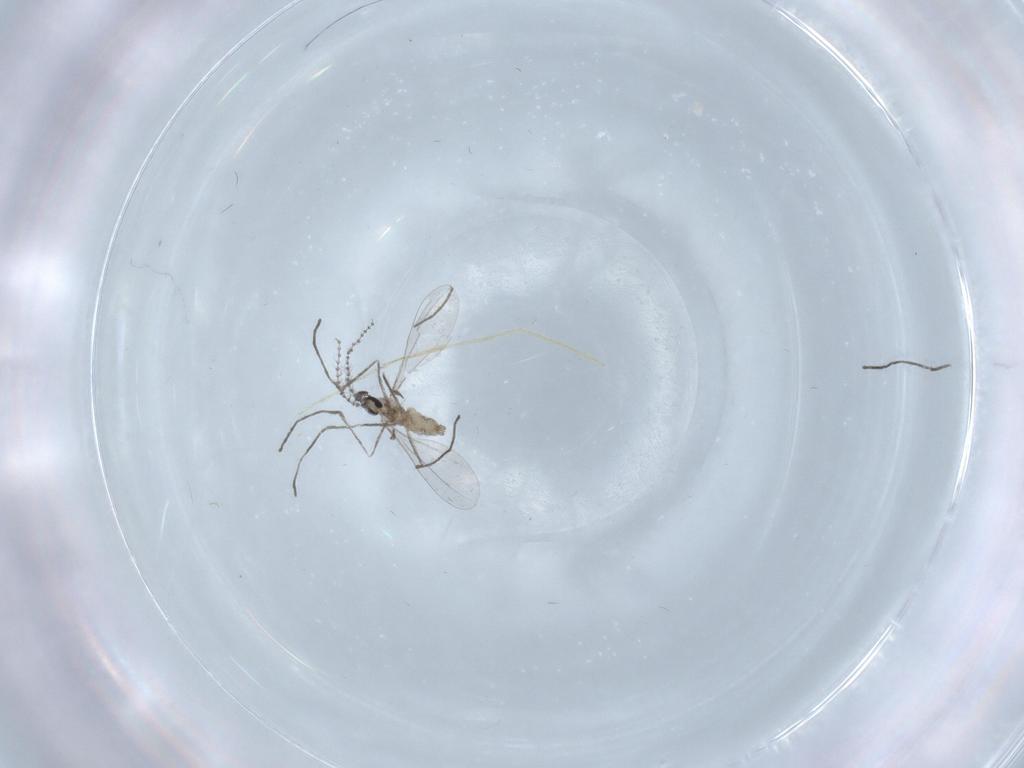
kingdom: Animalia
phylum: Arthropoda
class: Insecta
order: Diptera
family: Chironomidae
